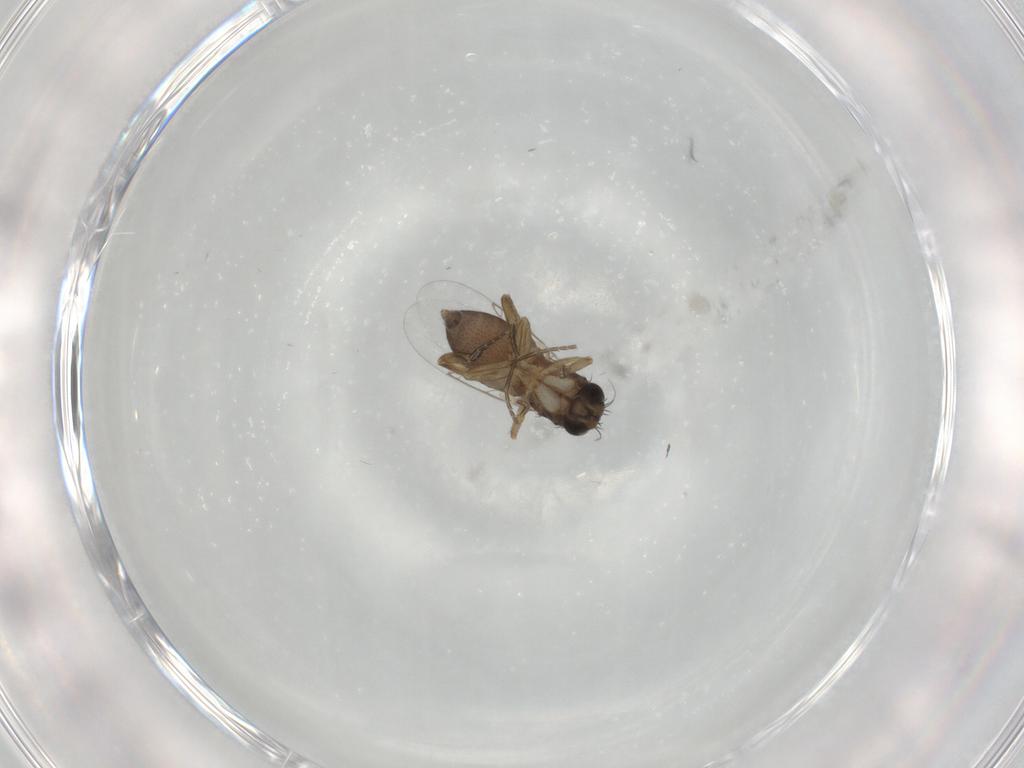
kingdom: Animalia
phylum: Arthropoda
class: Insecta
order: Diptera
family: Phoridae
